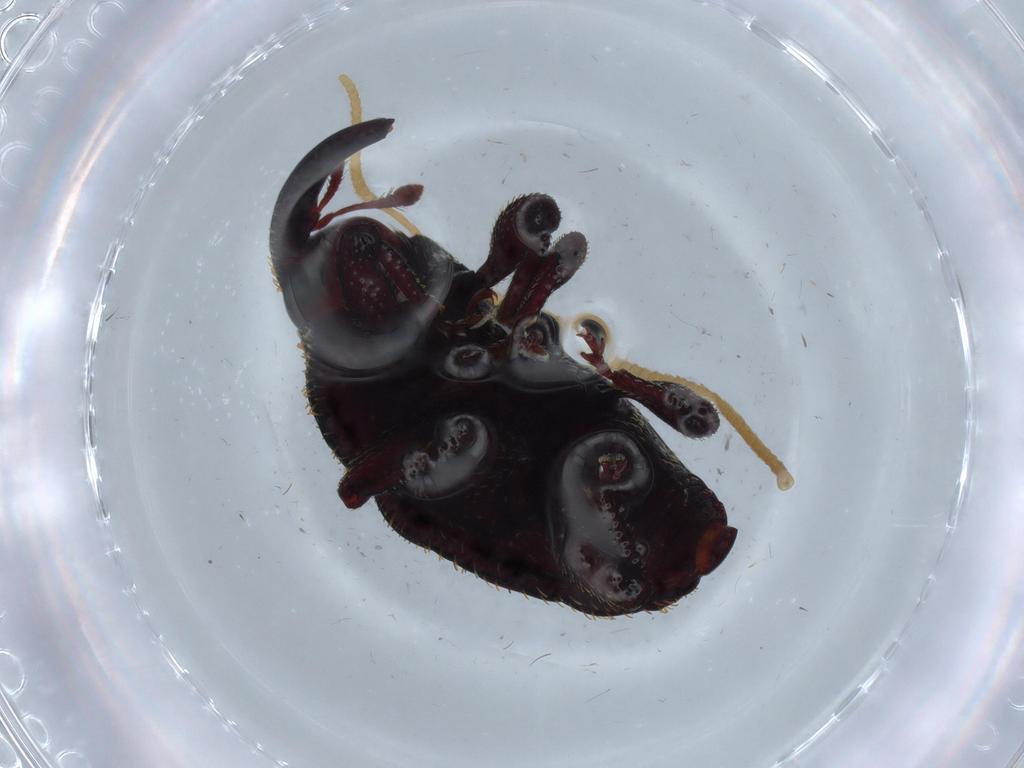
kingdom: Animalia
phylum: Arthropoda
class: Insecta
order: Coleoptera
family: Curculionidae
